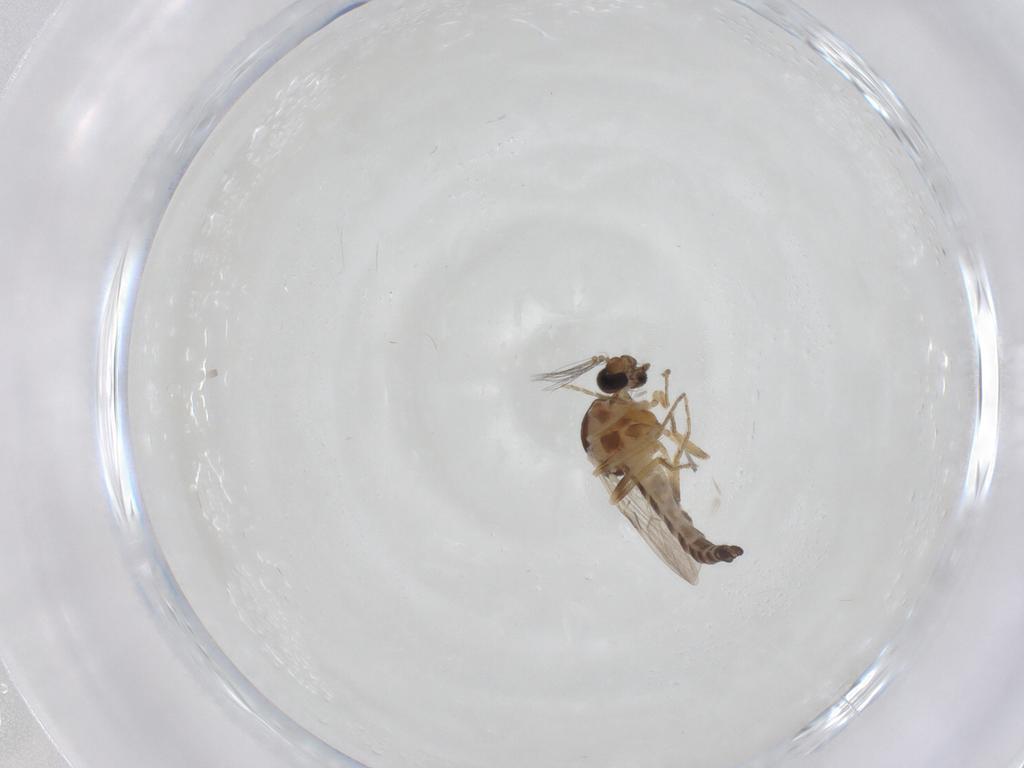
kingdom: Animalia
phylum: Arthropoda
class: Insecta
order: Diptera
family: Ceratopogonidae
